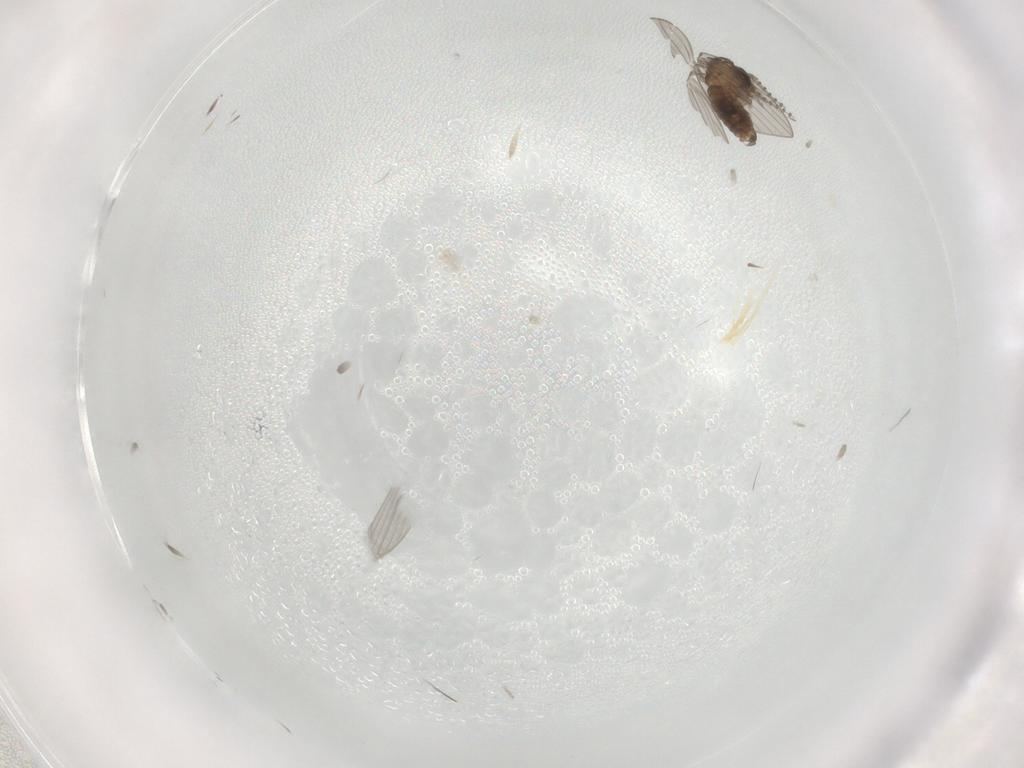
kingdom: Animalia
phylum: Arthropoda
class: Insecta
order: Diptera
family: Psychodidae
